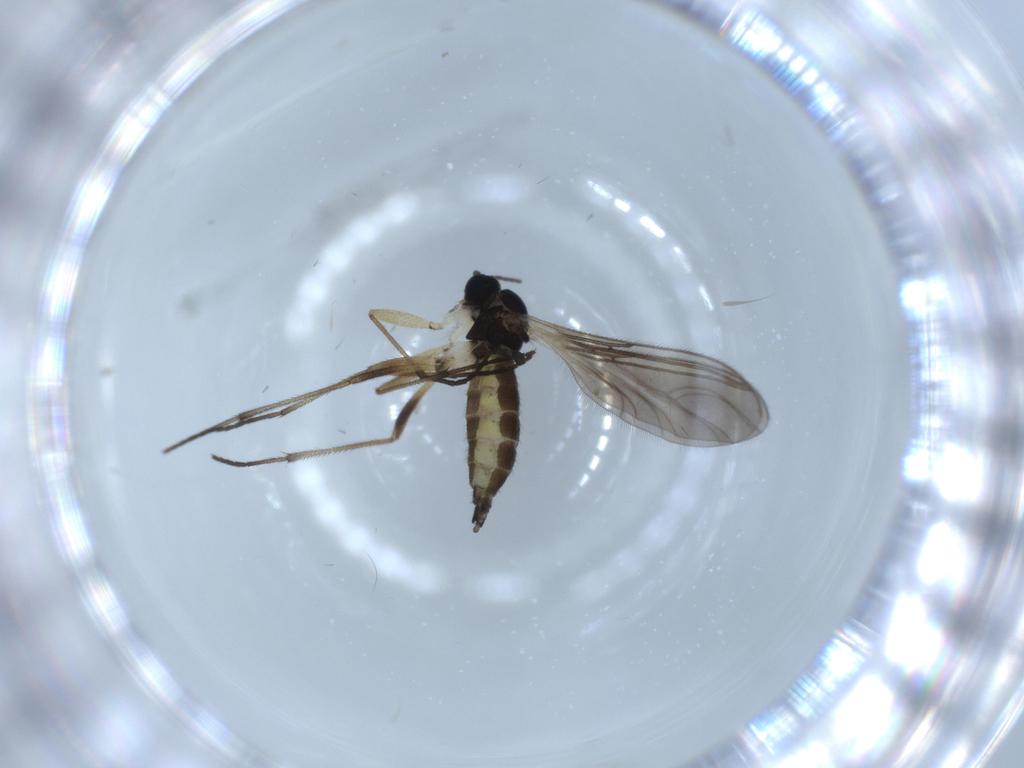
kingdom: Animalia
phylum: Arthropoda
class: Insecta
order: Diptera
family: Sciaridae
